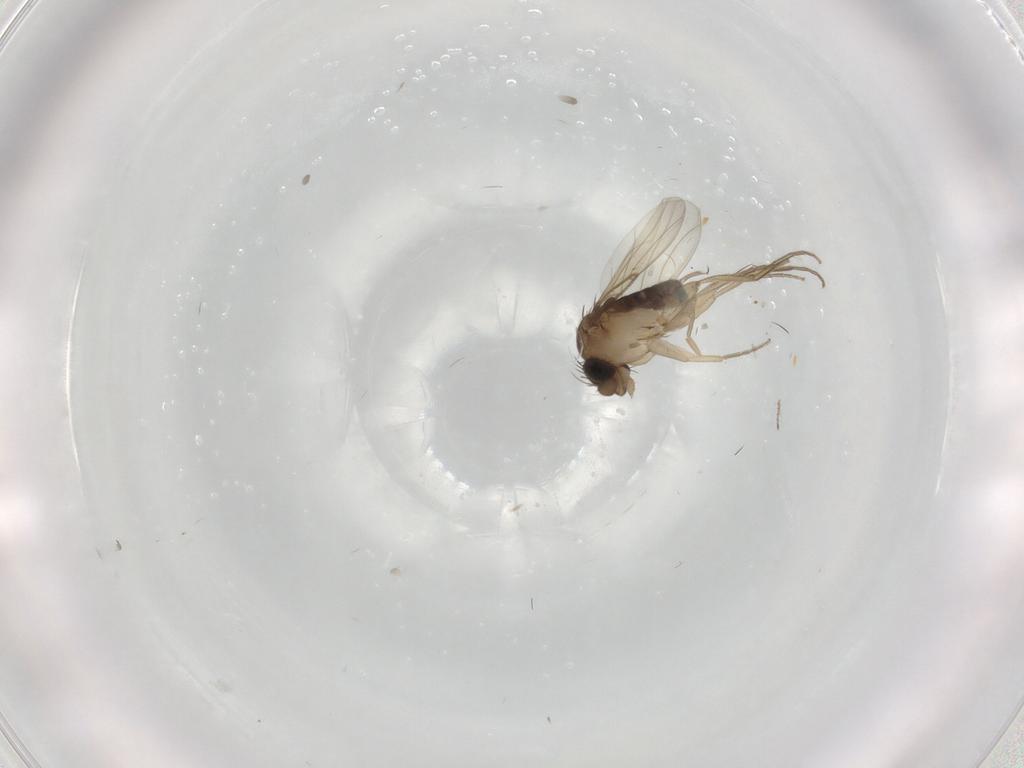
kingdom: Animalia
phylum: Arthropoda
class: Insecta
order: Diptera
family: Phoridae
